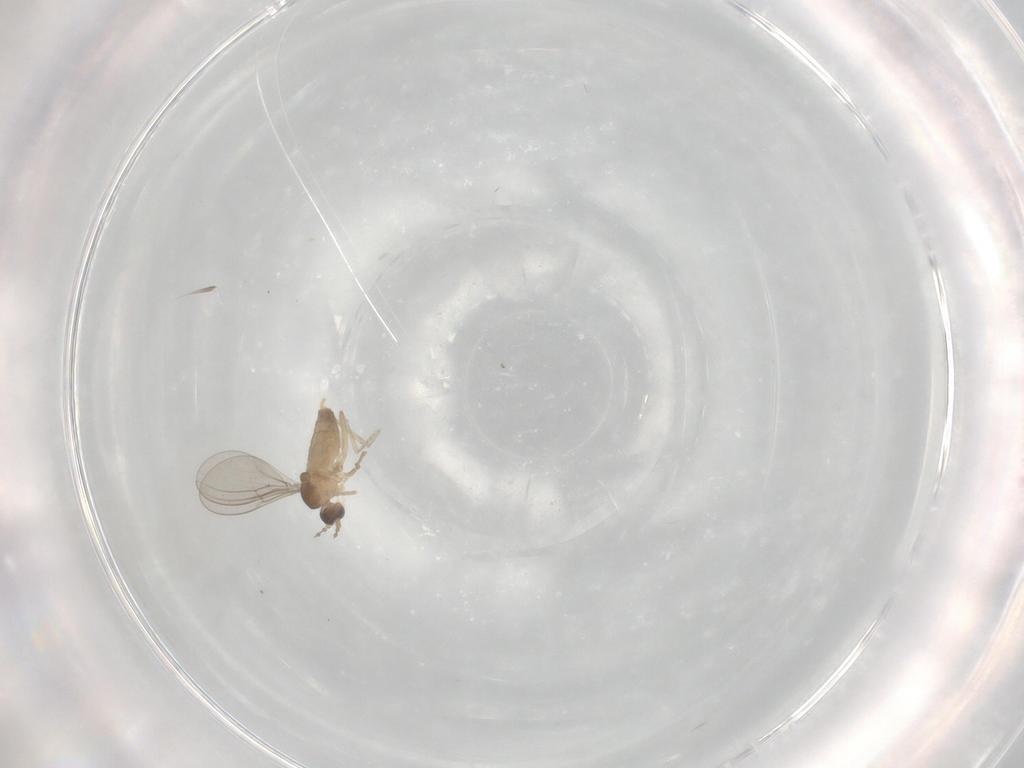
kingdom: Animalia
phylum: Arthropoda
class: Insecta
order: Diptera
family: Cecidomyiidae
